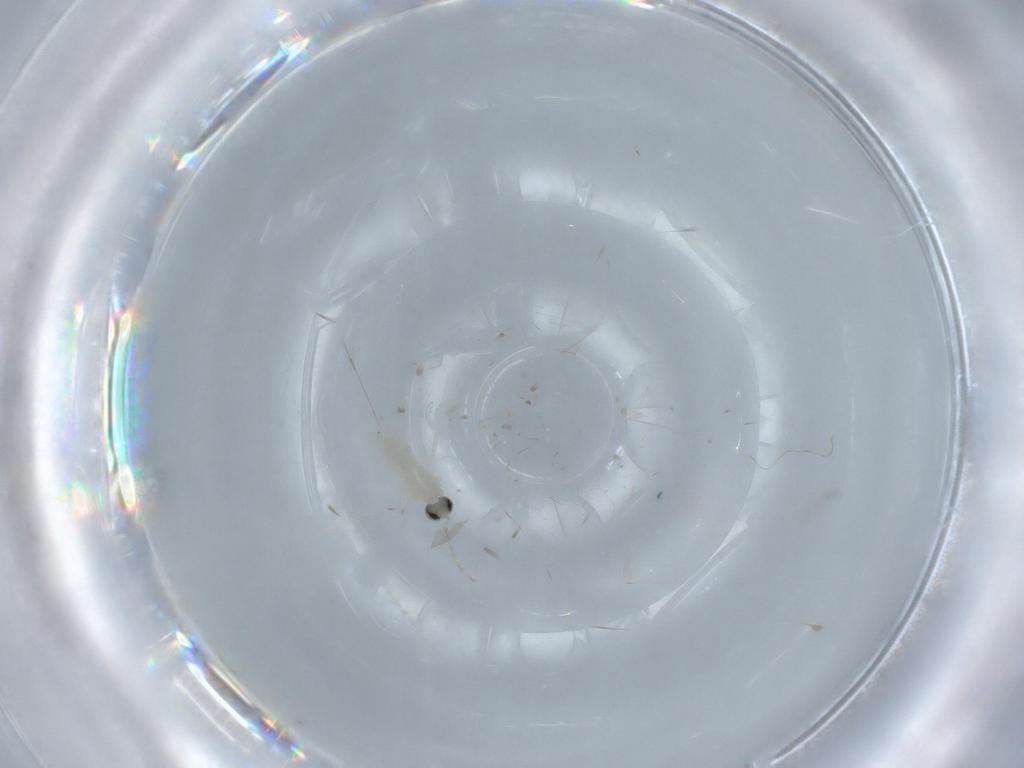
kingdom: Animalia
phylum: Arthropoda
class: Insecta
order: Diptera
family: Cecidomyiidae
